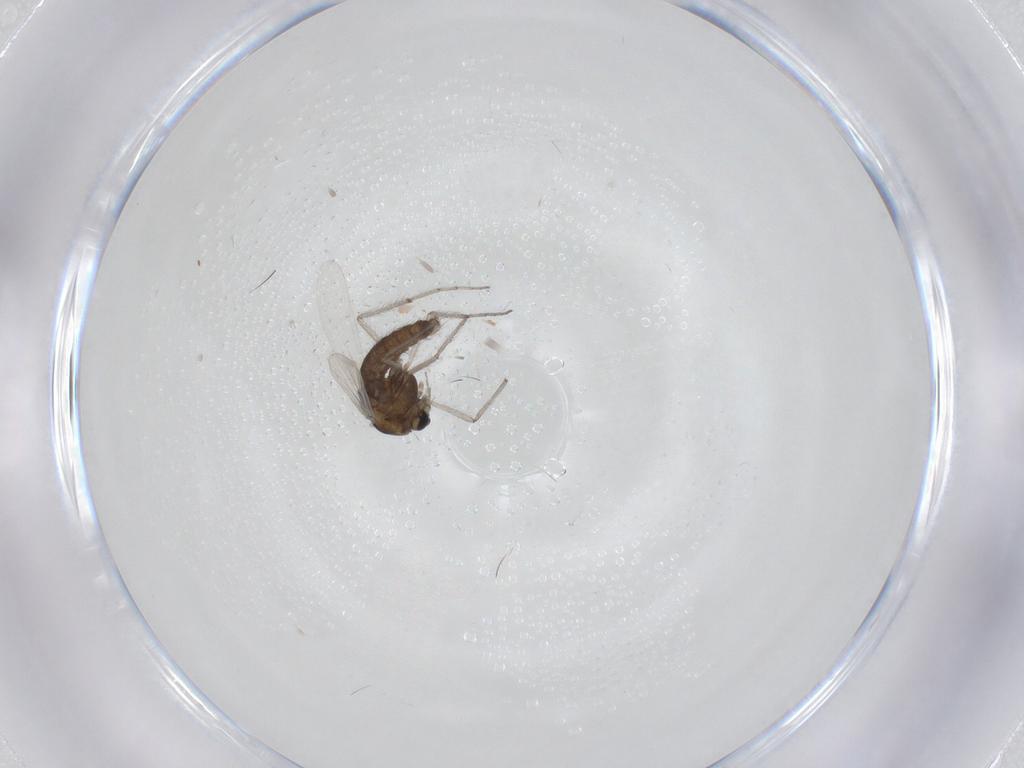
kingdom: Animalia
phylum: Arthropoda
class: Insecta
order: Diptera
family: Chironomidae
